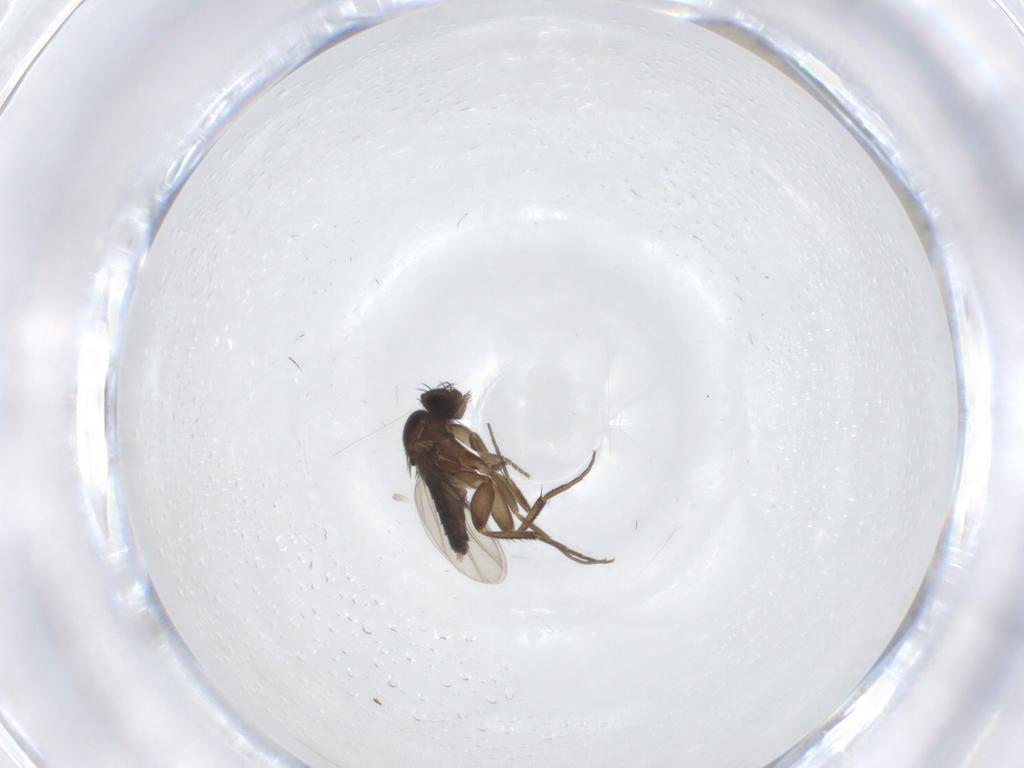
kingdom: Animalia
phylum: Arthropoda
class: Insecta
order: Diptera
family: Phoridae
